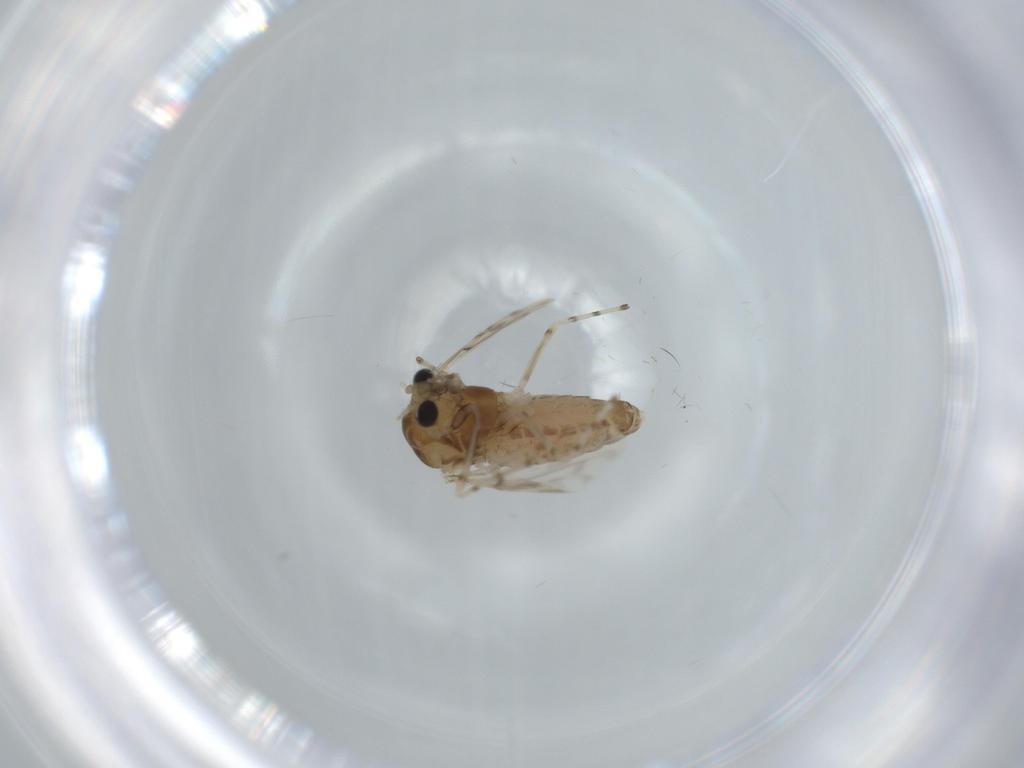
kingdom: Animalia
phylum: Arthropoda
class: Insecta
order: Diptera
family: Chironomidae
